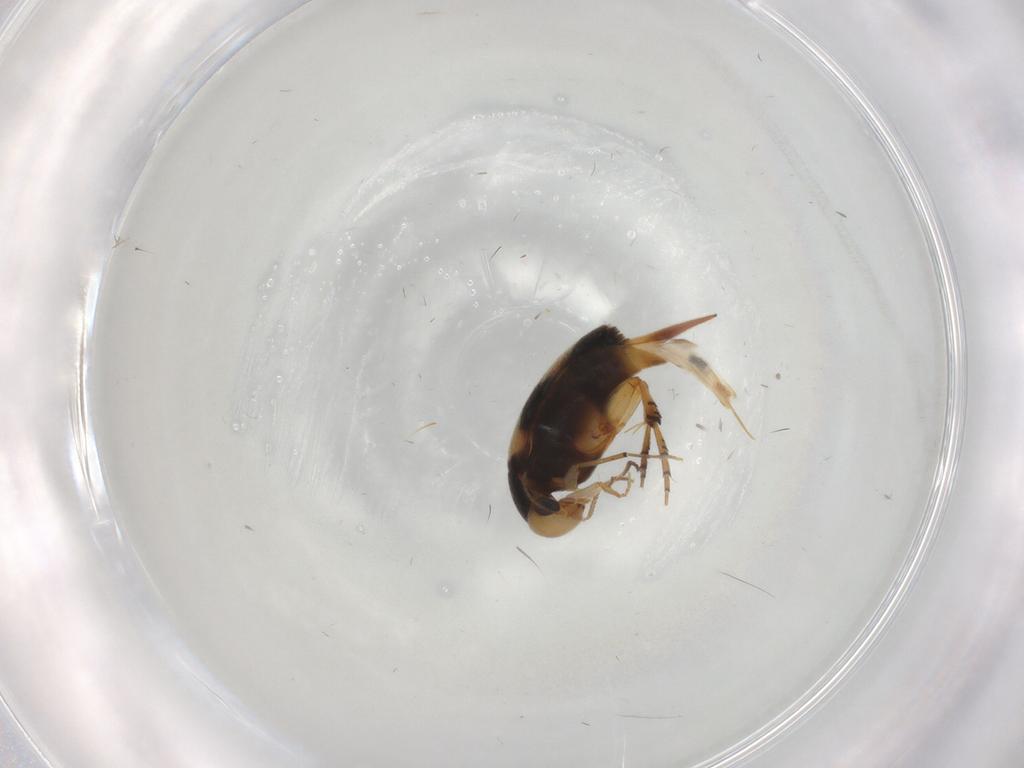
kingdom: Animalia
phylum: Arthropoda
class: Insecta
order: Coleoptera
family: Mordellidae
